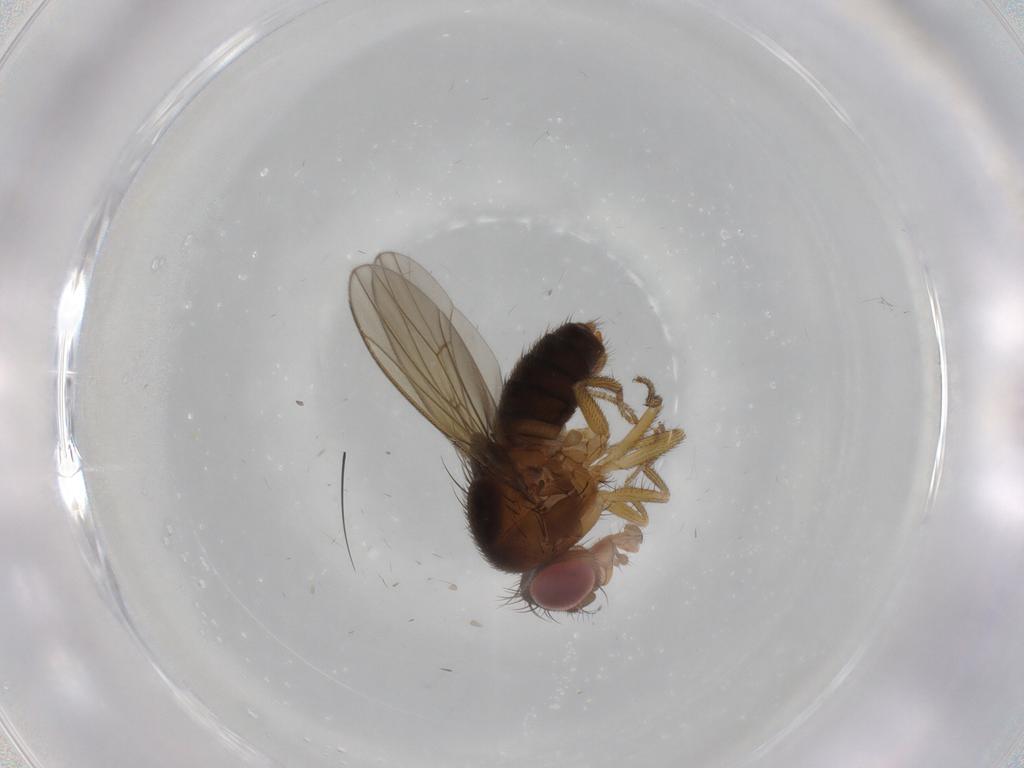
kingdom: Animalia
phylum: Arthropoda
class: Insecta
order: Diptera
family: Drosophilidae
